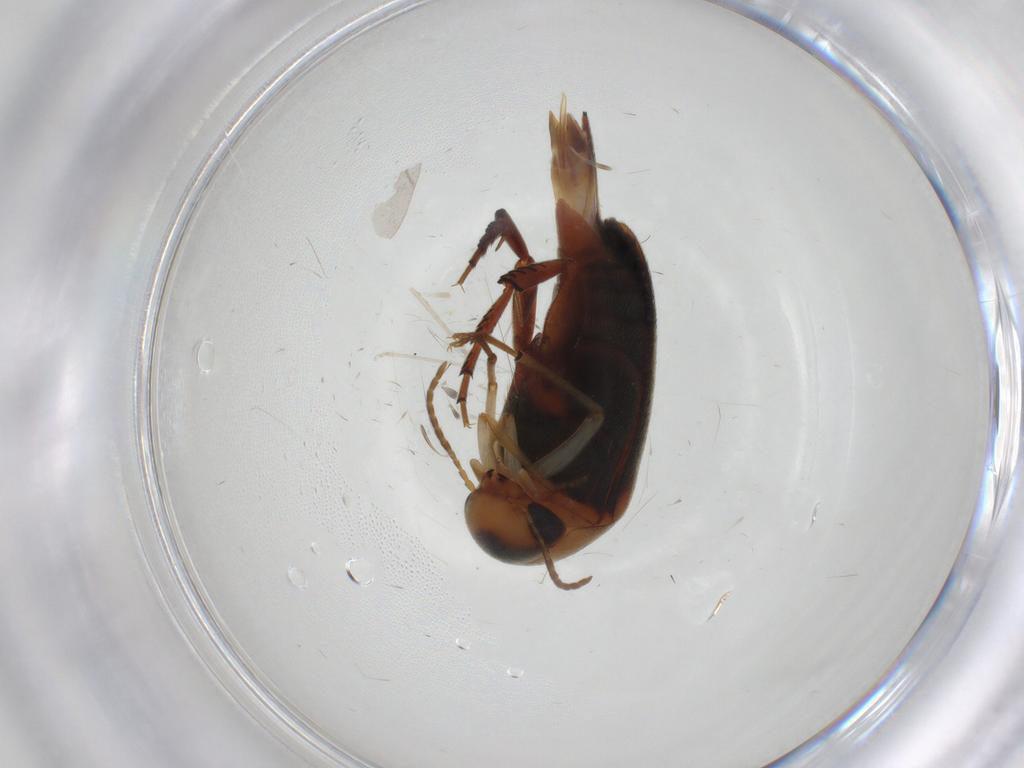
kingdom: Animalia
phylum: Arthropoda
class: Insecta
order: Coleoptera
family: Mordellidae
